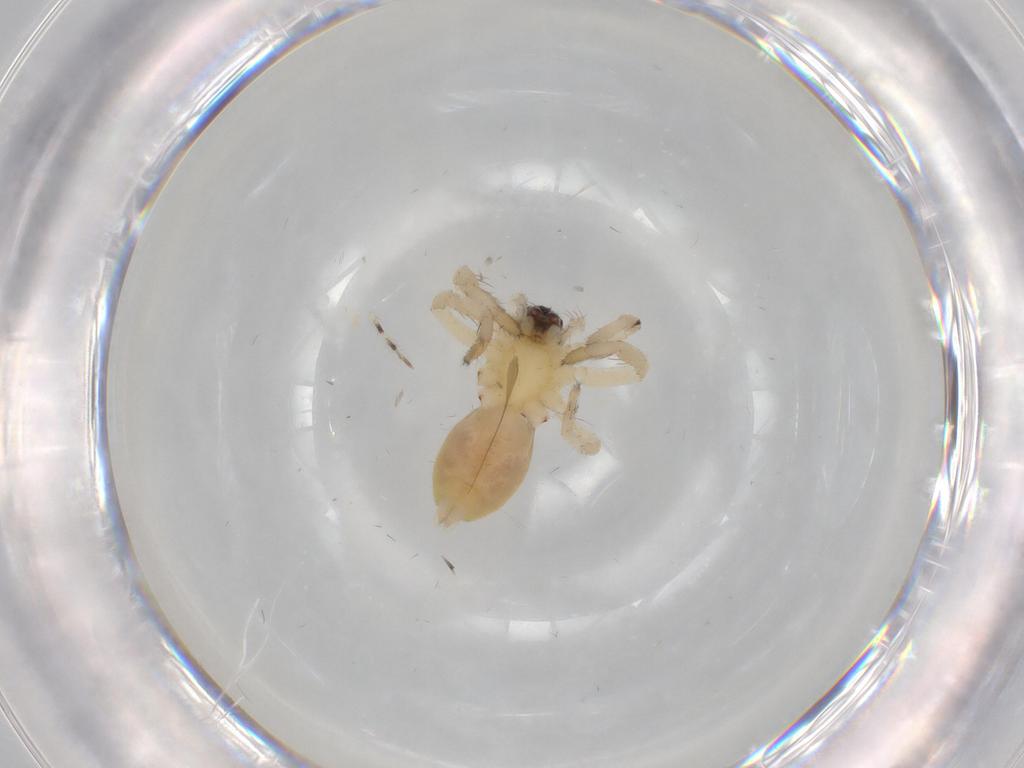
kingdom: Animalia
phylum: Arthropoda
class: Arachnida
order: Araneae
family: Anyphaenidae
